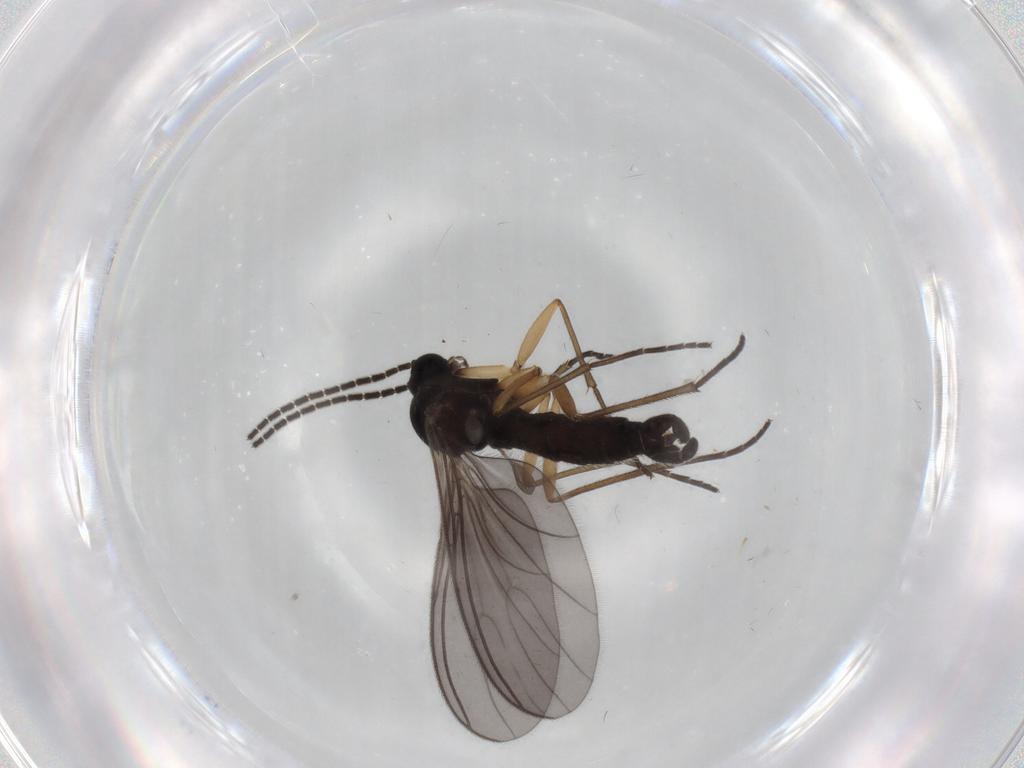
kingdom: Animalia
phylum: Arthropoda
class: Insecta
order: Diptera
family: Sciaridae
